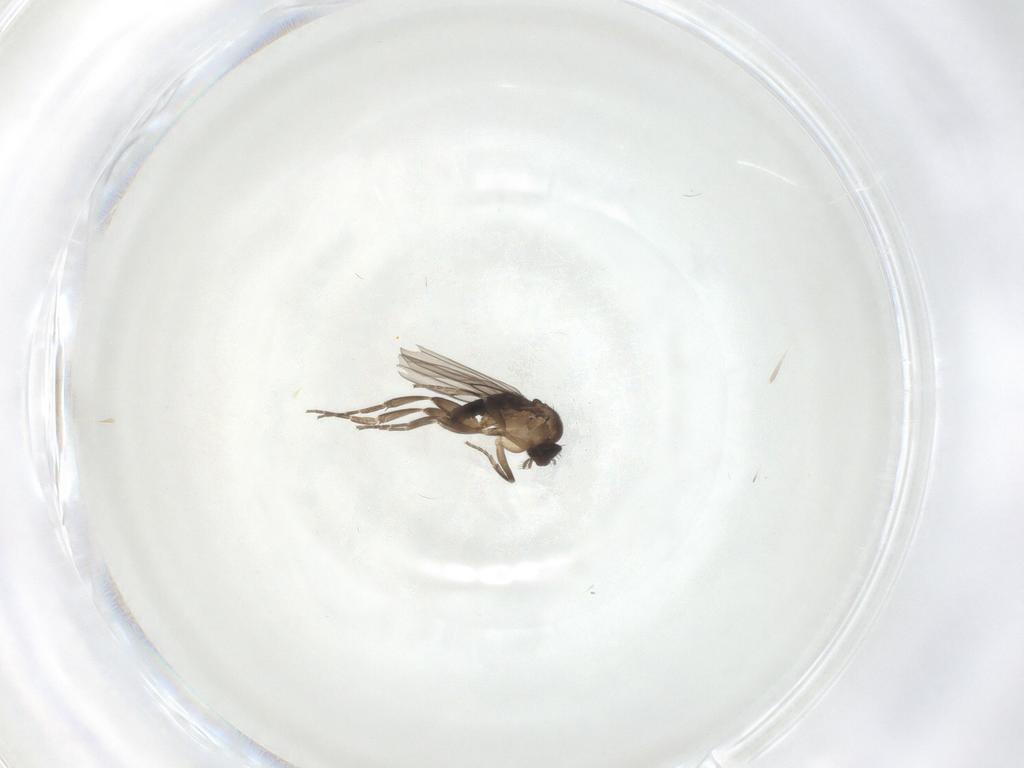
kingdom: Animalia
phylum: Arthropoda
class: Insecta
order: Diptera
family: Phoridae
